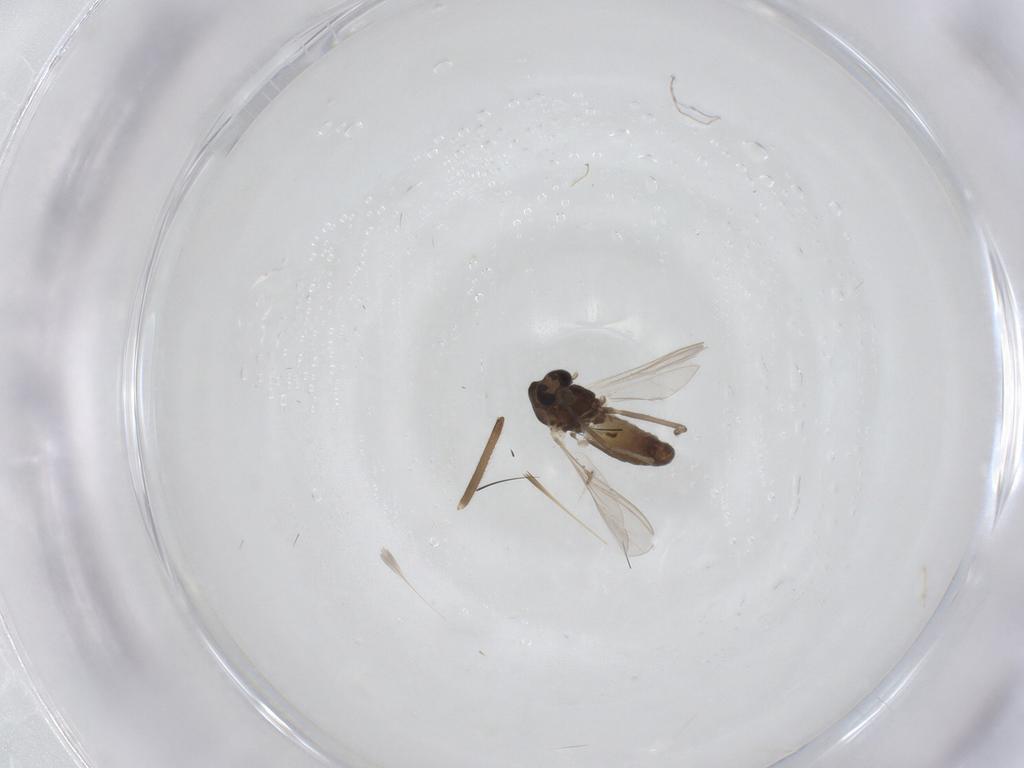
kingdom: Animalia
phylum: Arthropoda
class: Insecta
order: Diptera
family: Chironomidae
